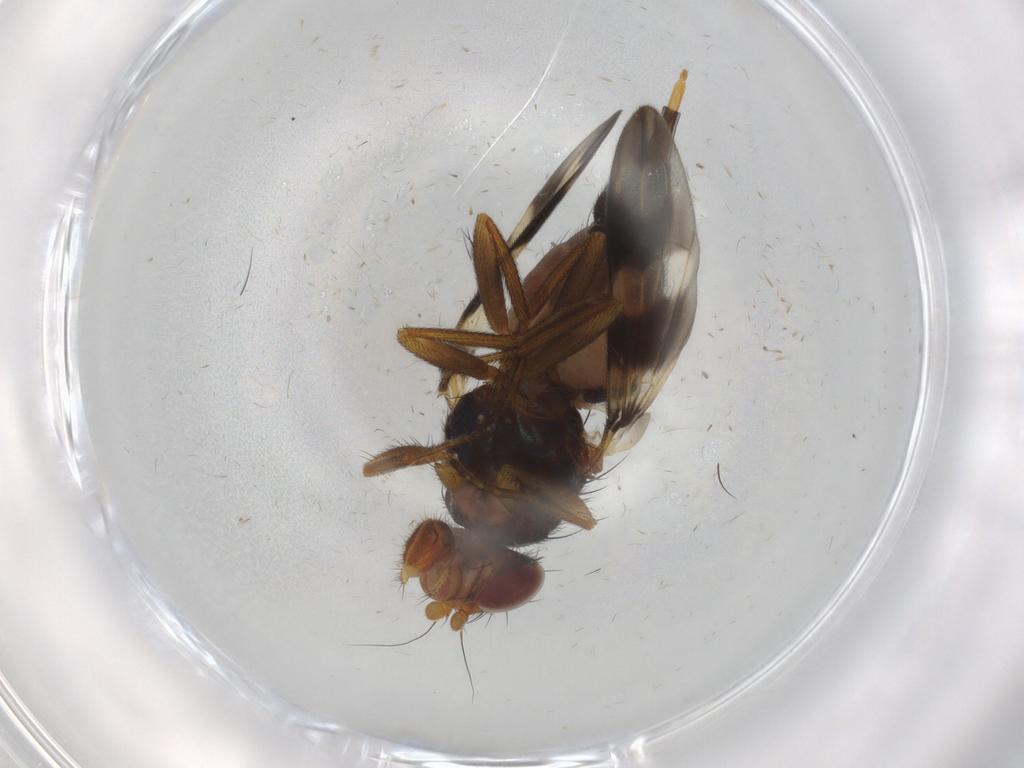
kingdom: Animalia
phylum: Arthropoda
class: Insecta
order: Diptera
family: Ulidiidae
